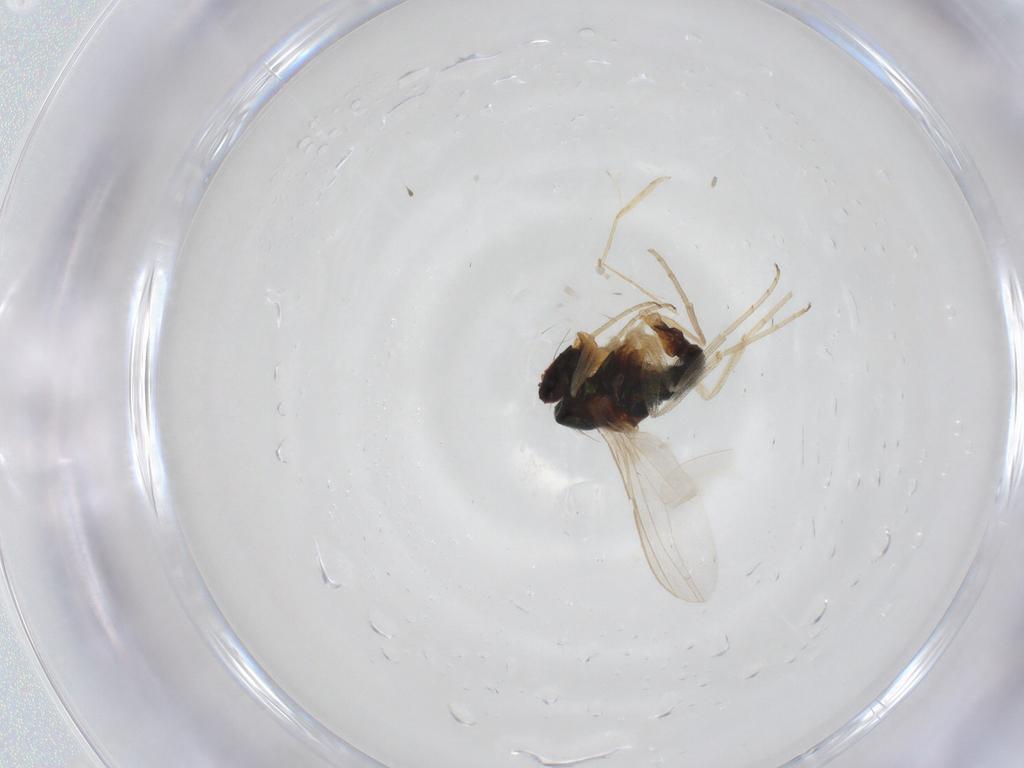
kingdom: Animalia
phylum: Arthropoda
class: Insecta
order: Diptera
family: Dolichopodidae
